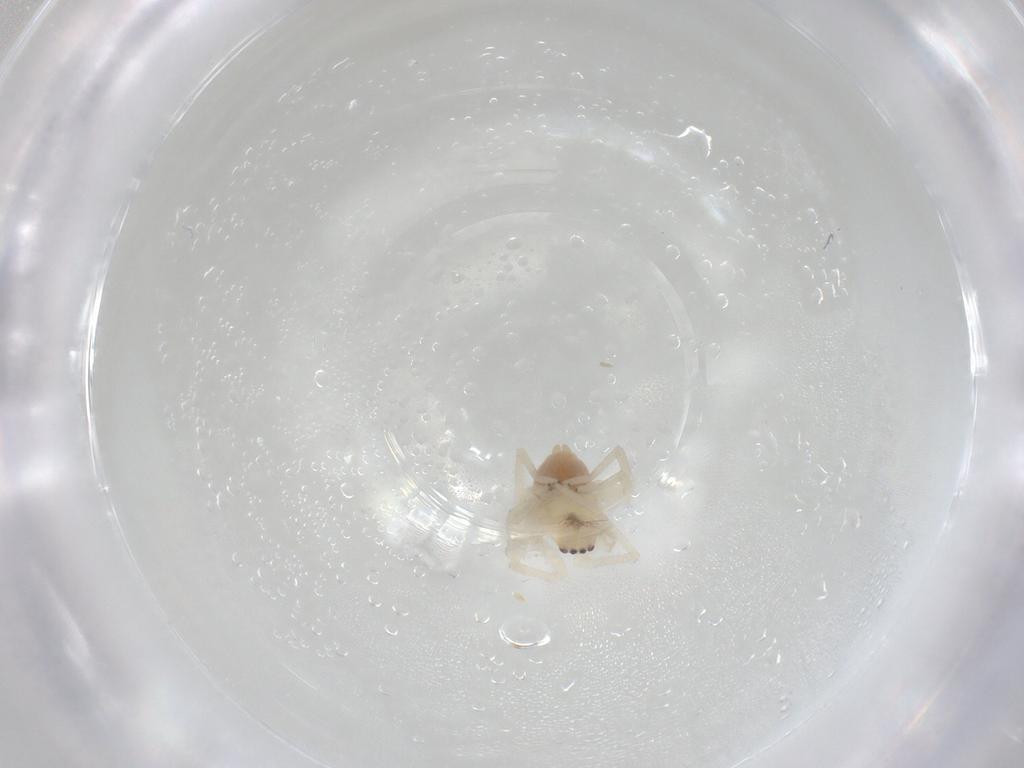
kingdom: Animalia
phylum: Arthropoda
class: Arachnida
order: Araneae
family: Cheiracanthiidae
